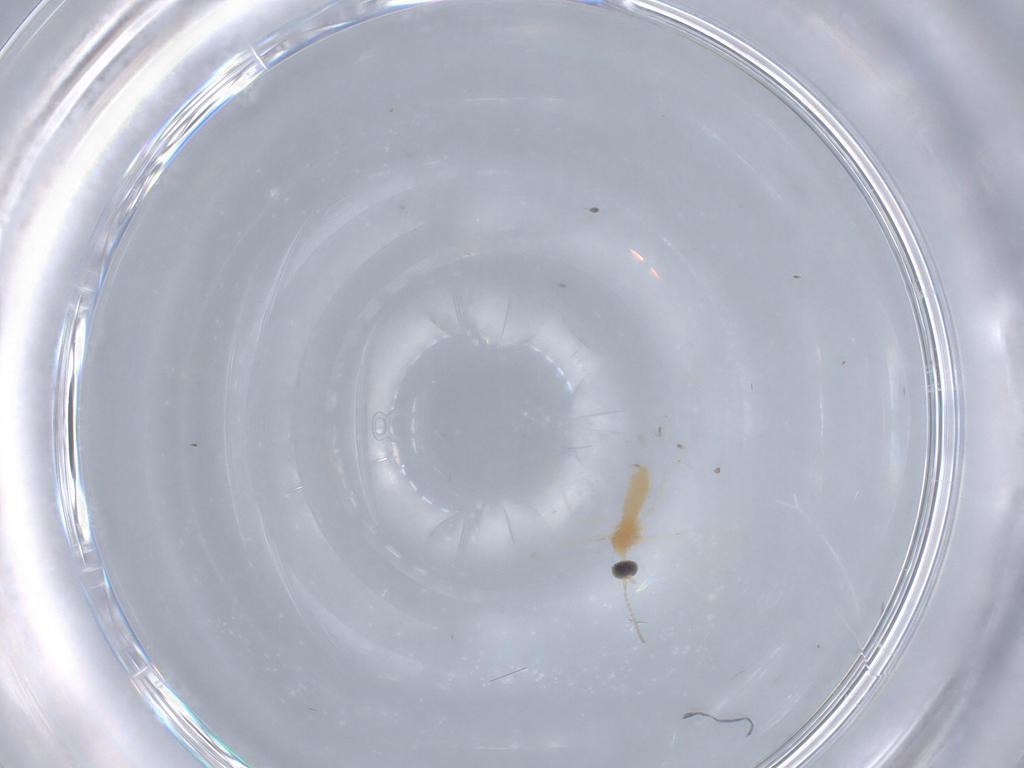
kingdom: Animalia
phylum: Arthropoda
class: Insecta
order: Diptera
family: Cecidomyiidae
